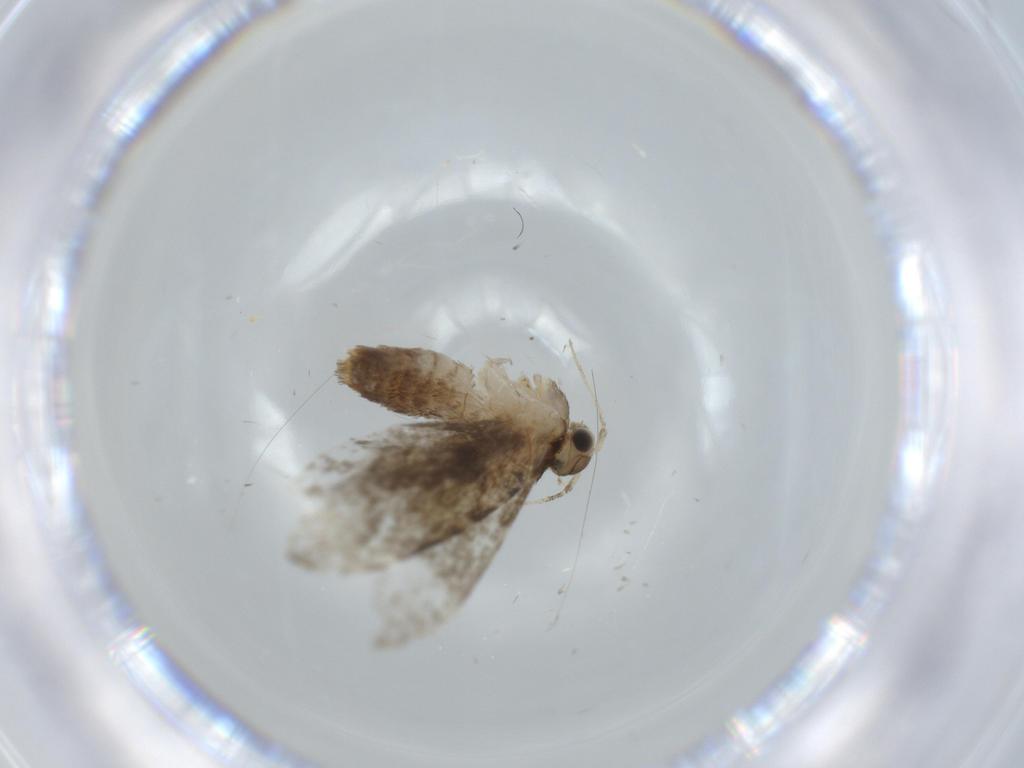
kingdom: Animalia
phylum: Arthropoda
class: Insecta
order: Lepidoptera
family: Tineidae
